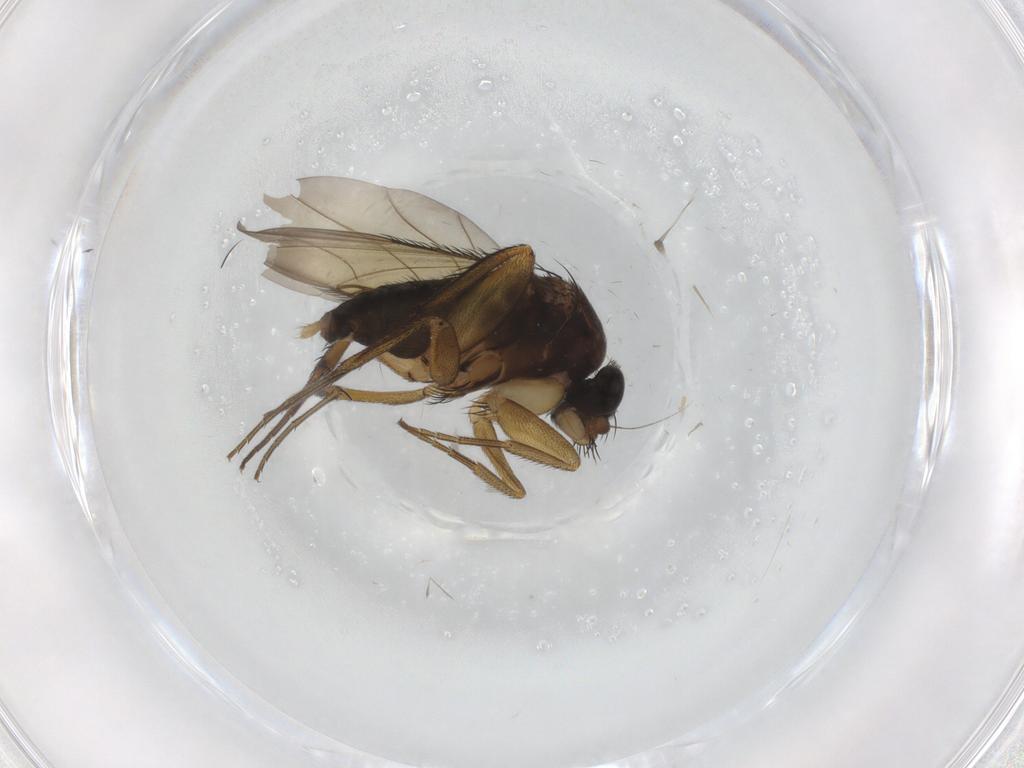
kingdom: Animalia
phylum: Arthropoda
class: Insecta
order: Diptera
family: Phoridae
